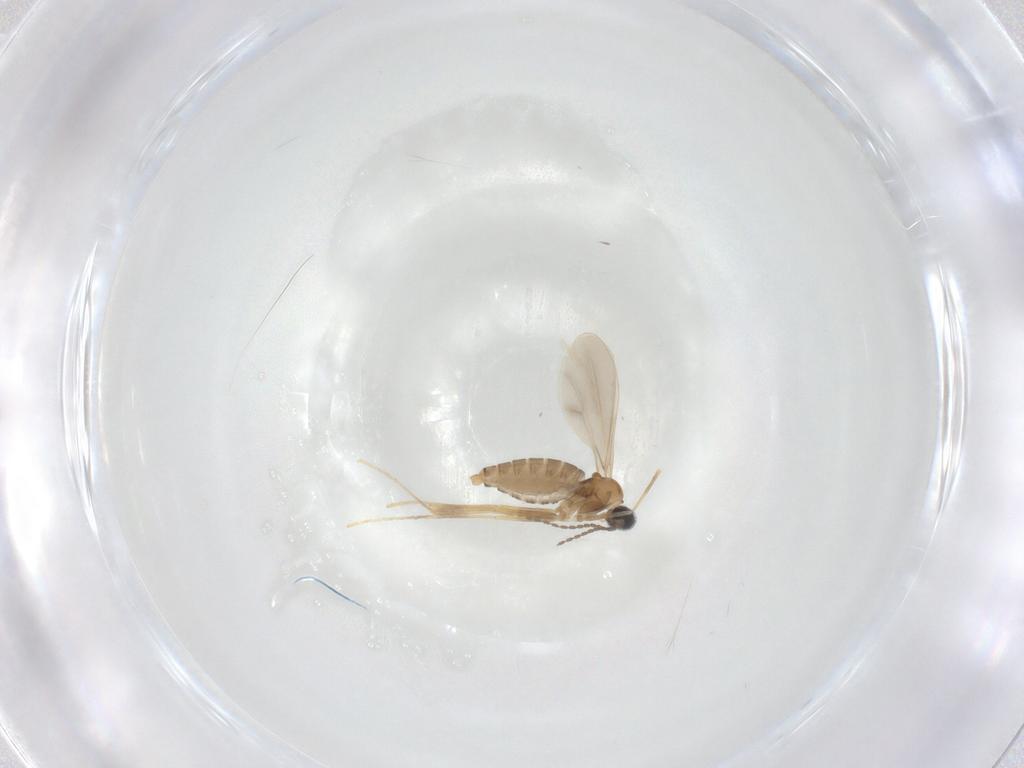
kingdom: Animalia
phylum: Arthropoda
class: Insecta
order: Diptera
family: Cecidomyiidae
